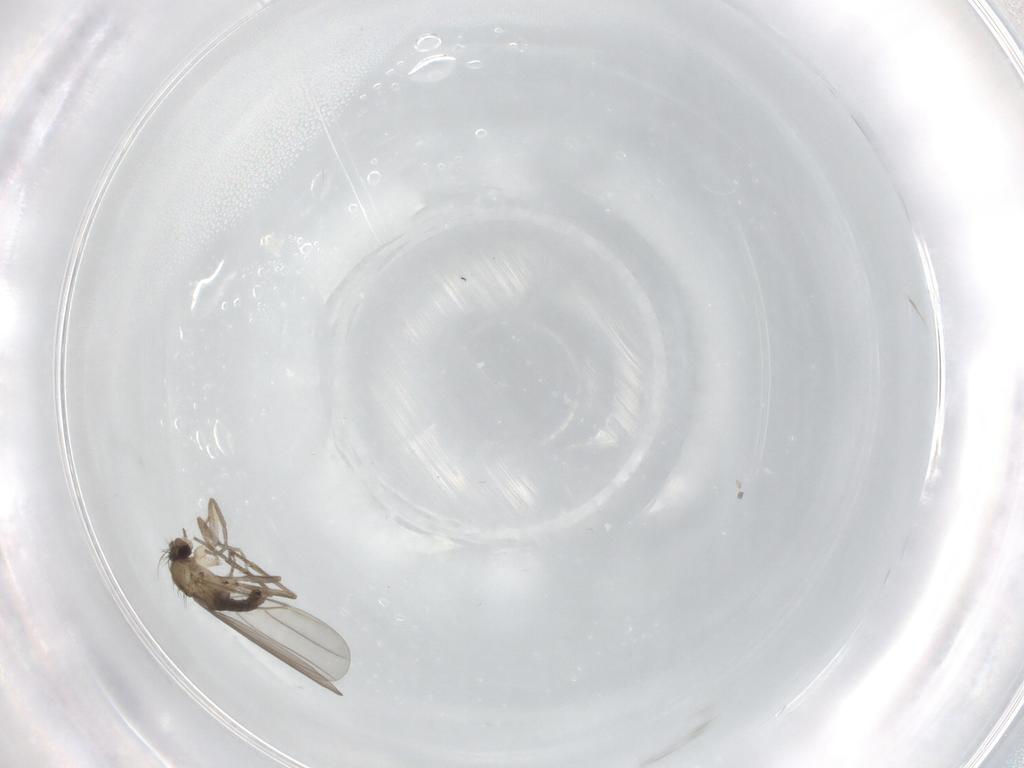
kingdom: Animalia
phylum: Arthropoda
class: Insecta
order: Diptera
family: Phoridae
